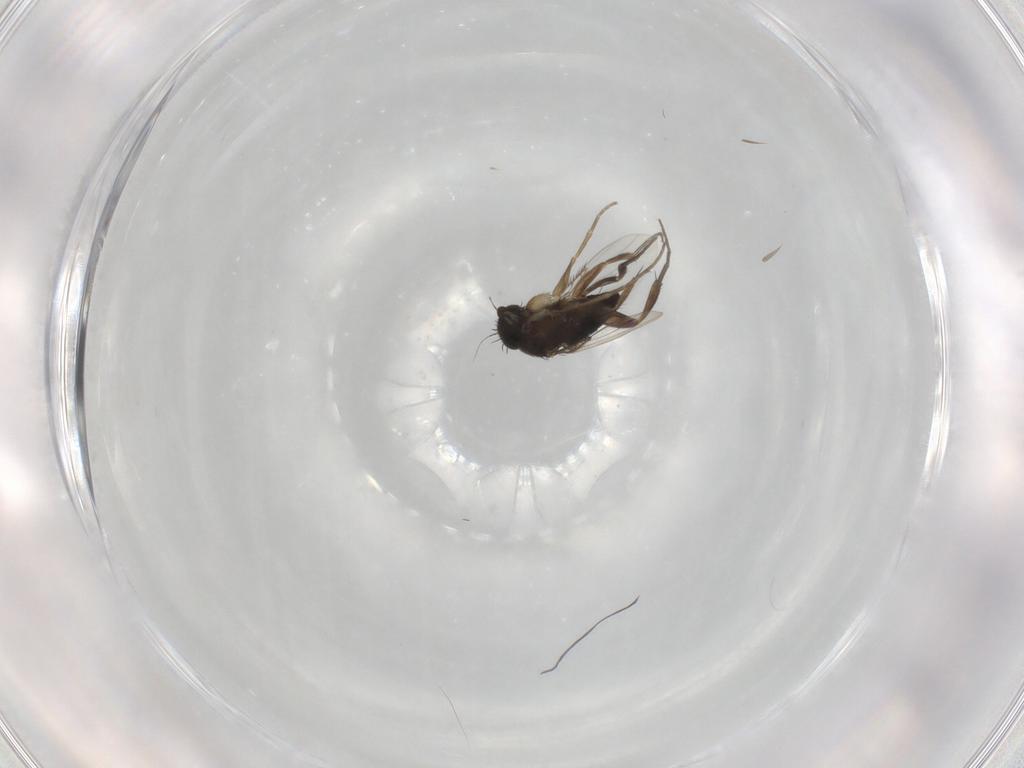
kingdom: Animalia
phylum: Arthropoda
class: Insecta
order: Diptera
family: Phoridae
